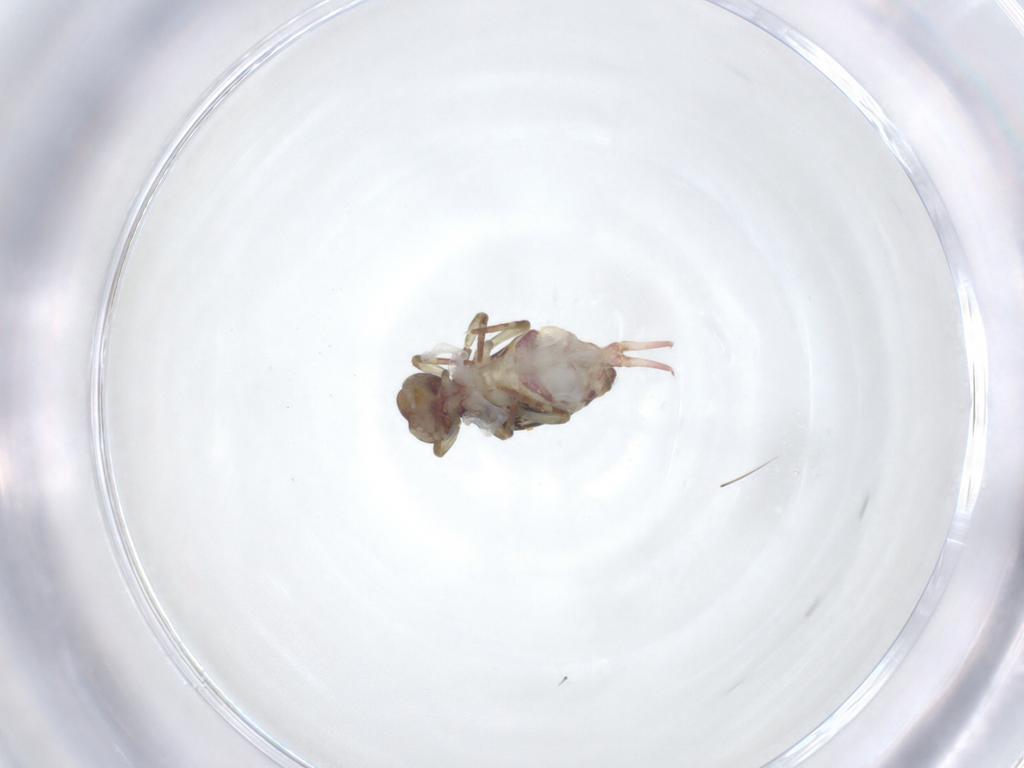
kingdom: Animalia
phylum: Arthropoda
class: Collembola
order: Symphypleona
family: Dicyrtomidae
